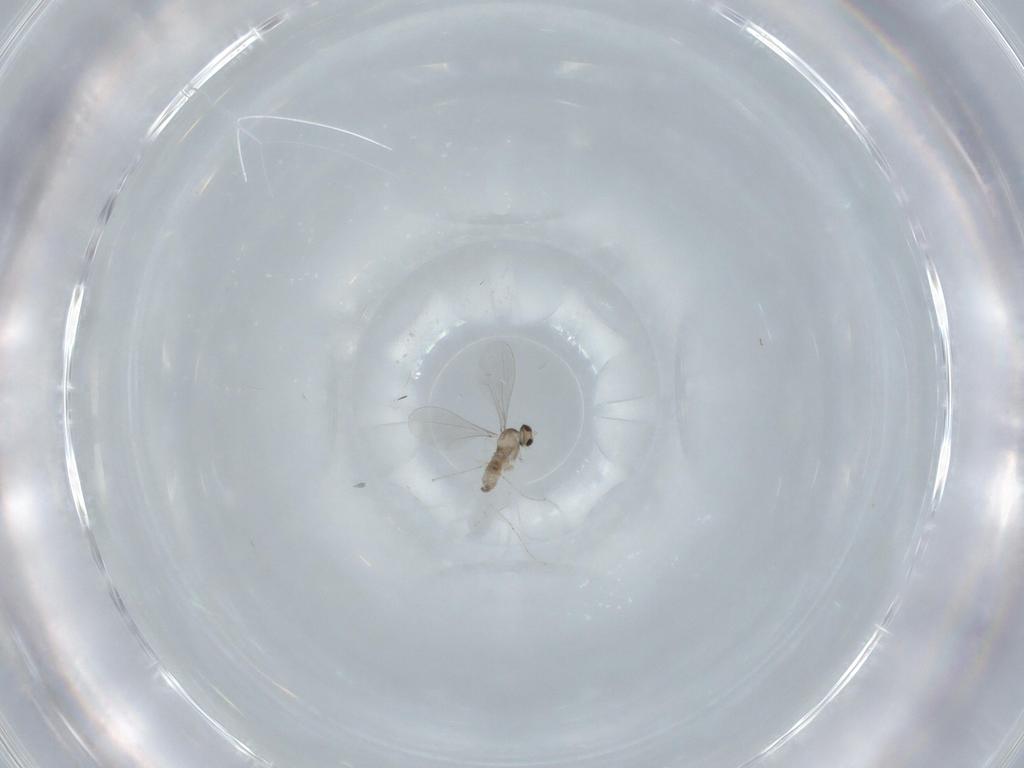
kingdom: Animalia
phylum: Arthropoda
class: Insecta
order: Diptera
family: Cecidomyiidae
